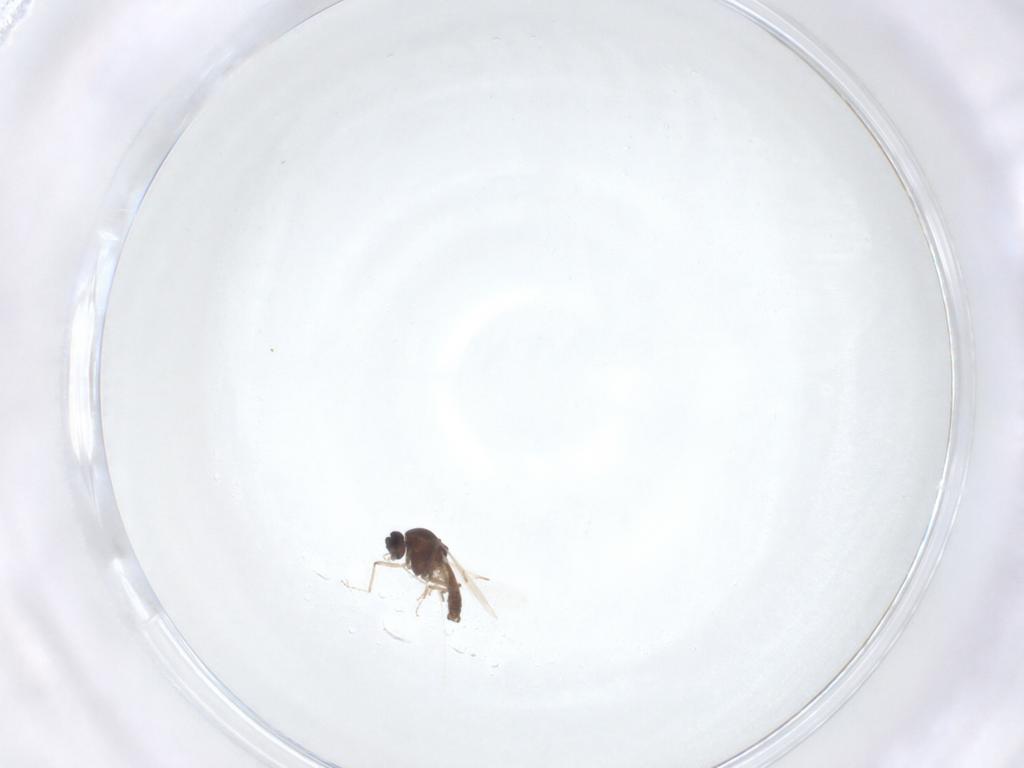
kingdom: Animalia
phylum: Arthropoda
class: Insecta
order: Diptera
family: Ceratopogonidae
